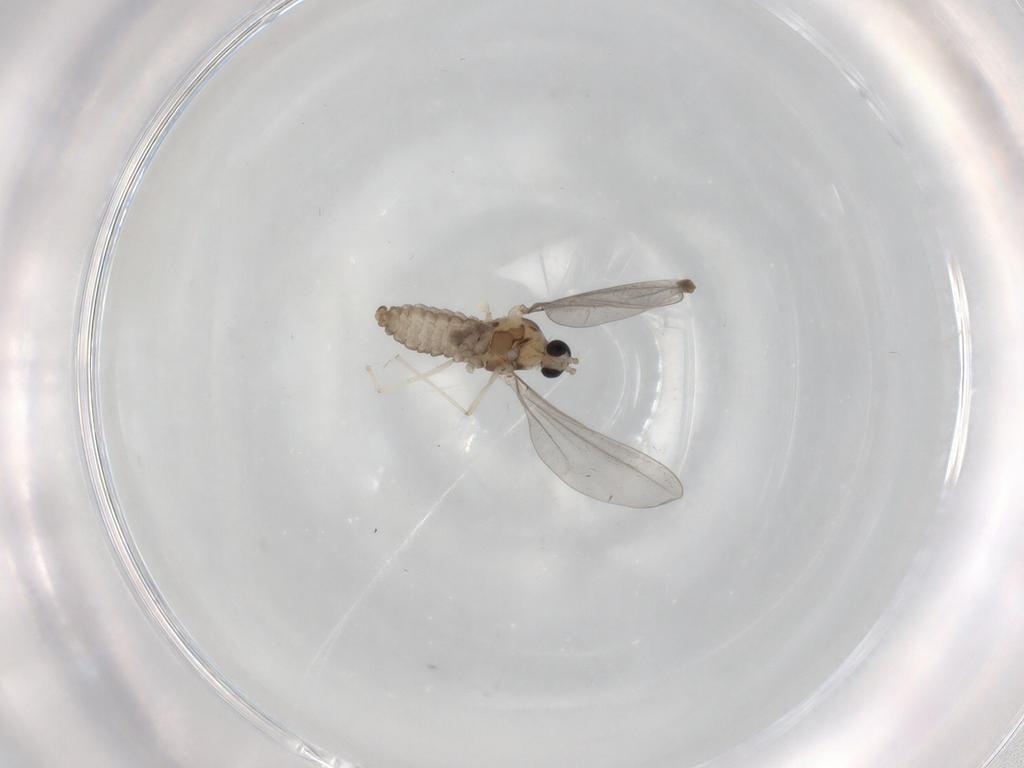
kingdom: Animalia
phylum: Arthropoda
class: Insecta
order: Diptera
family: Cecidomyiidae
